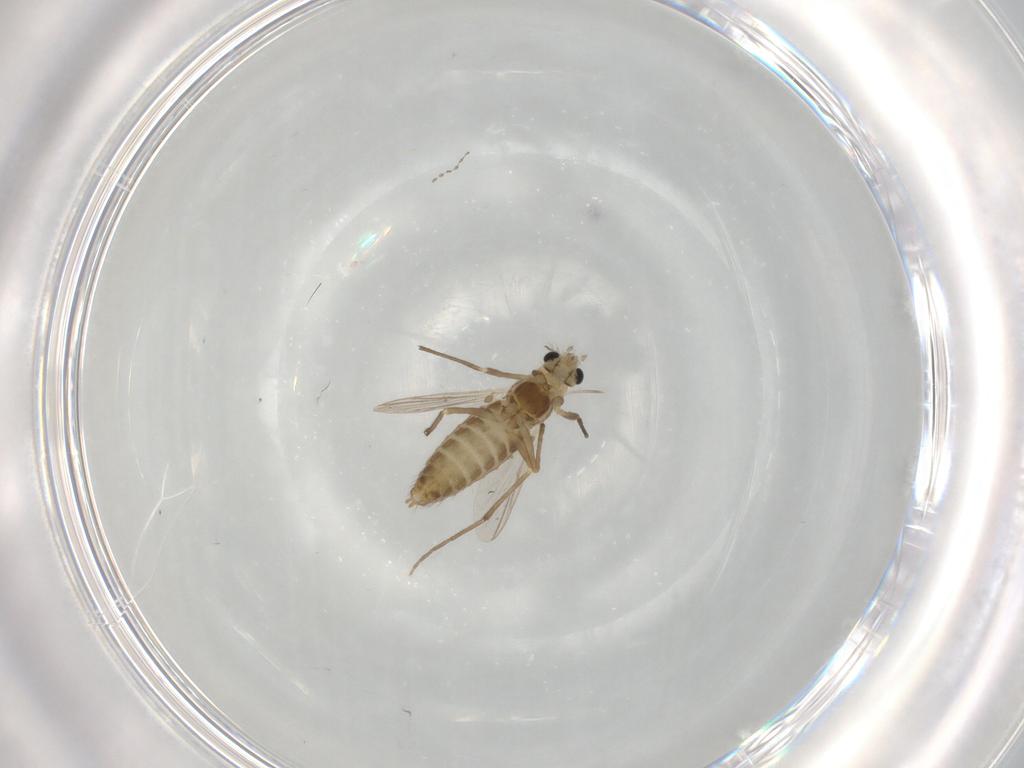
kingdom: Animalia
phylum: Arthropoda
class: Insecta
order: Diptera
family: Chironomidae
